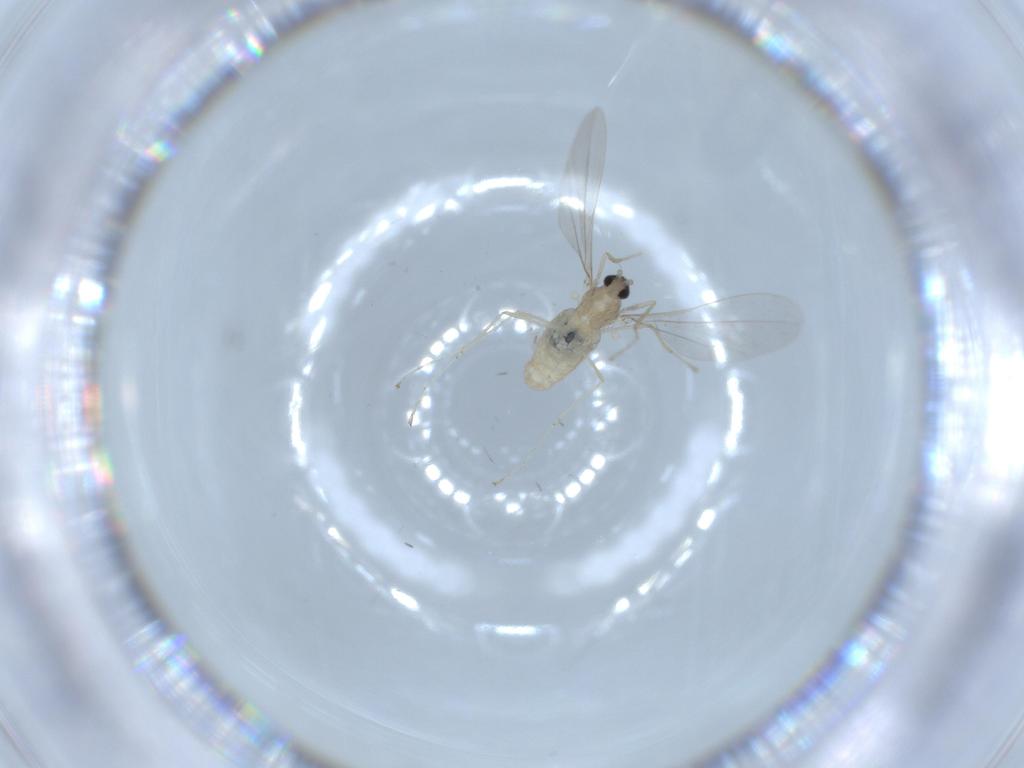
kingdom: Animalia
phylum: Arthropoda
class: Insecta
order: Diptera
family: Cecidomyiidae
